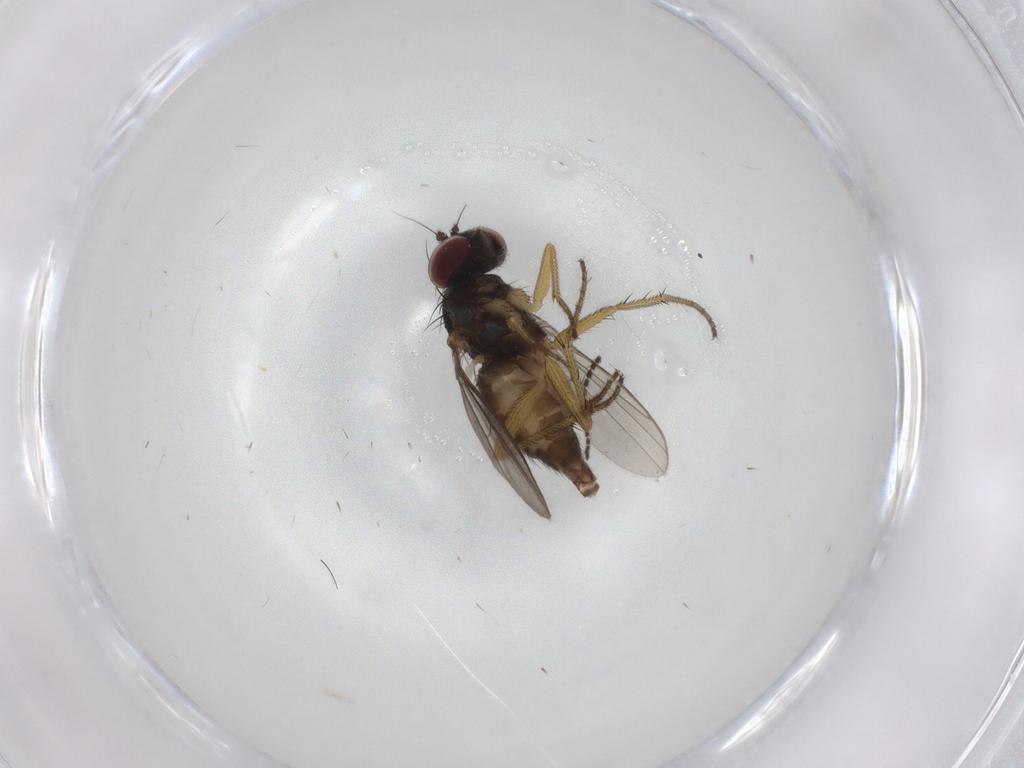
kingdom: Animalia
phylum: Arthropoda
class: Insecta
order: Diptera
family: Dolichopodidae
